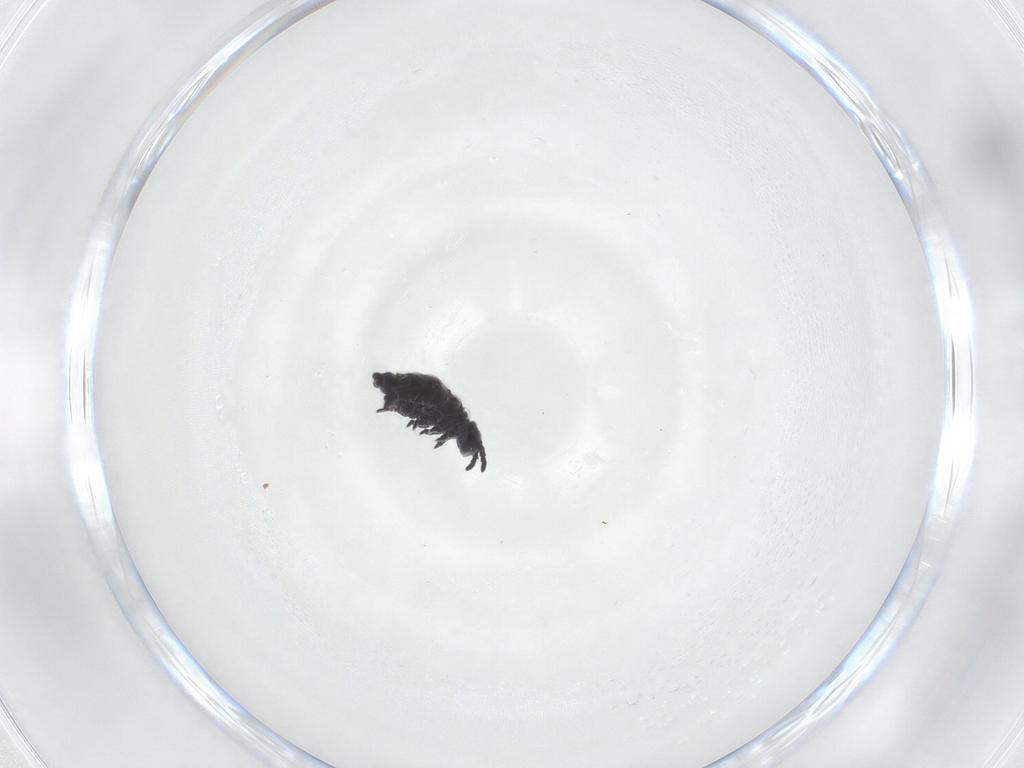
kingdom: Animalia
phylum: Arthropoda
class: Collembola
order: Poduromorpha
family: Hypogastruridae
